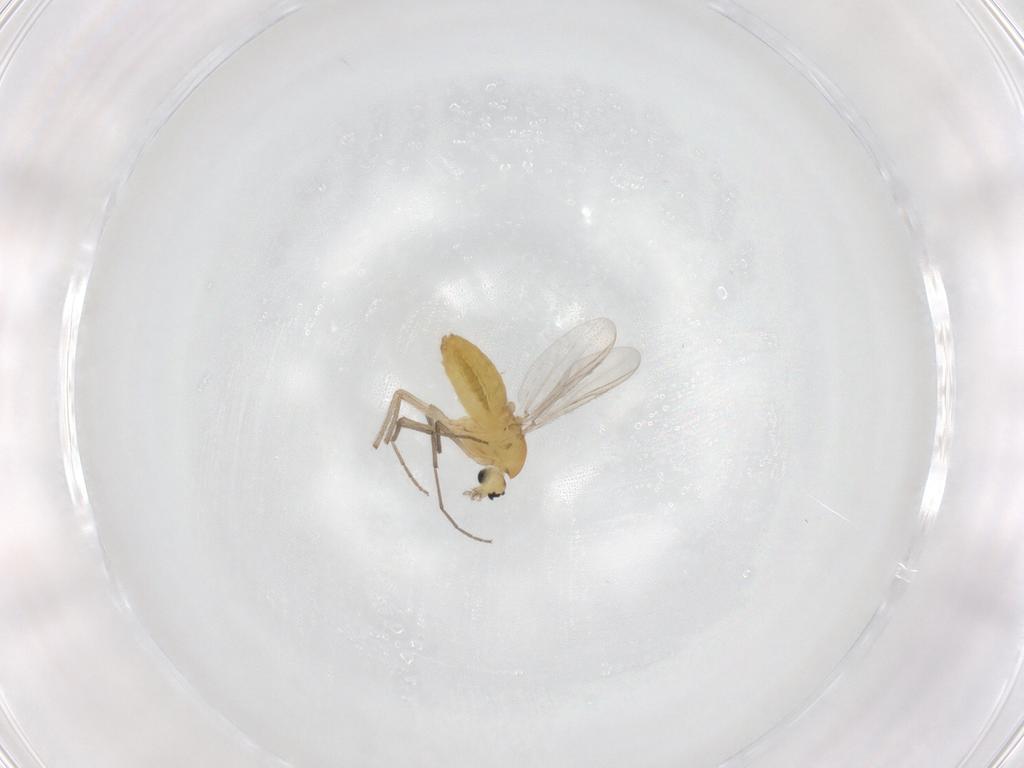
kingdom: Animalia
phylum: Arthropoda
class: Insecta
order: Diptera
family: Chironomidae
